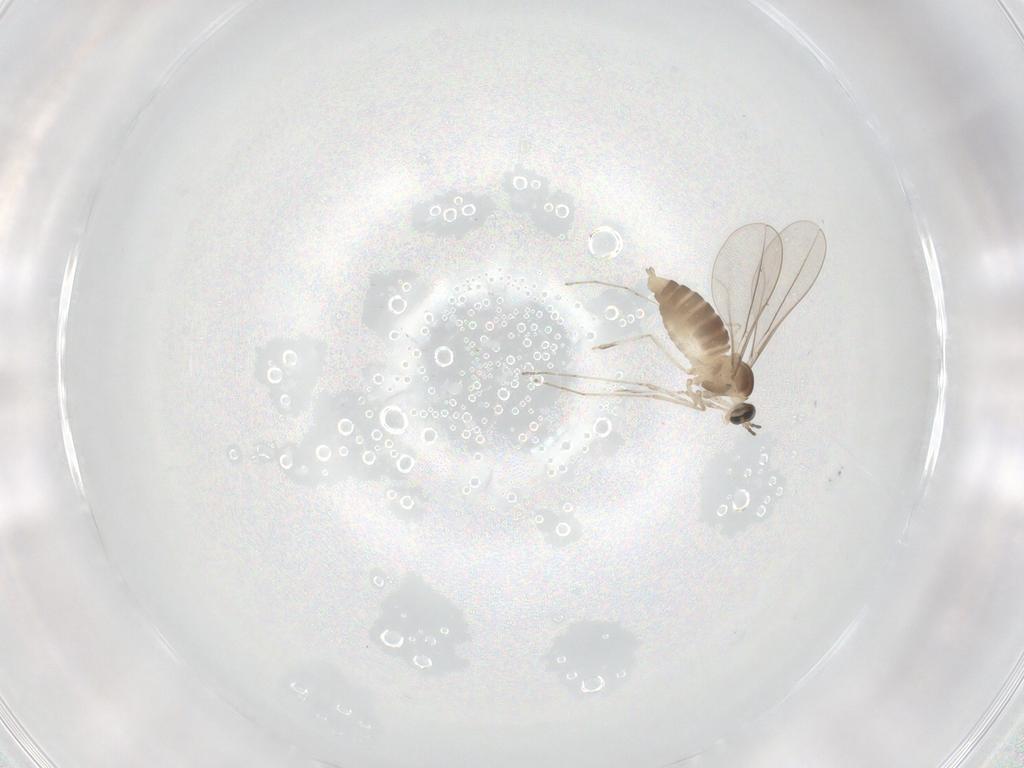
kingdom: Animalia
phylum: Arthropoda
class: Insecta
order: Diptera
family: Cecidomyiidae
